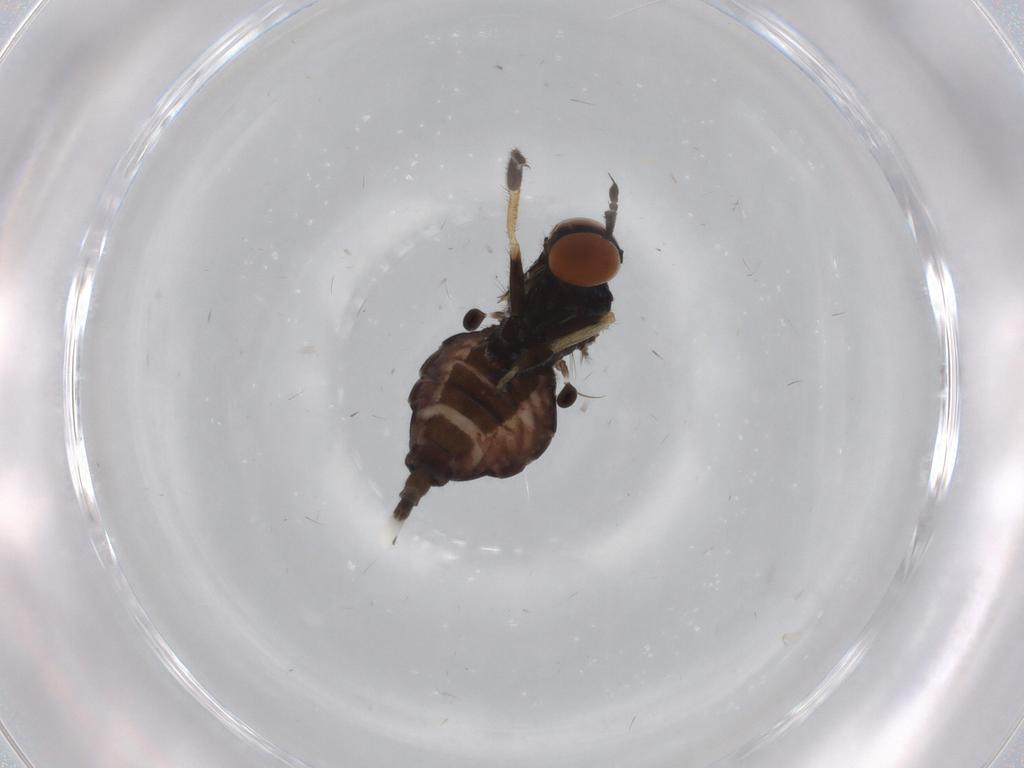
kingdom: Animalia
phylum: Arthropoda
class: Insecta
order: Diptera
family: Empididae
